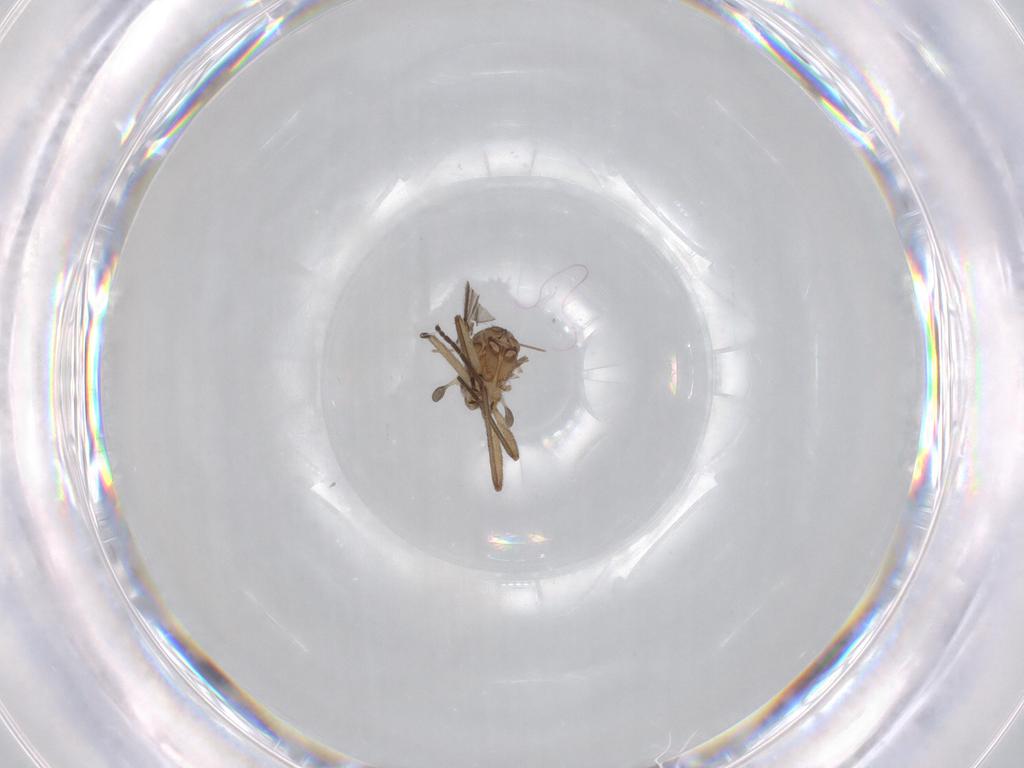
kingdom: Animalia
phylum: Arthropoda
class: Insecta
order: Diptera
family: Sciaridae
